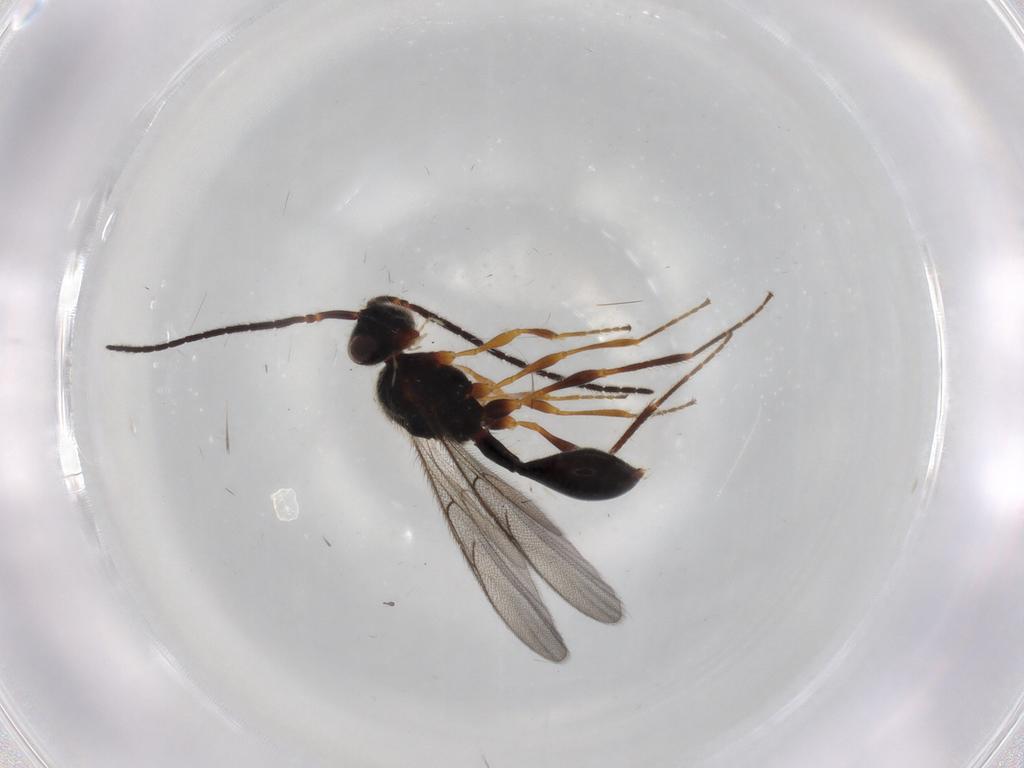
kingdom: Animalia
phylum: Arthropoda
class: Insecta
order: Hymenoptera
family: Diapriidae
